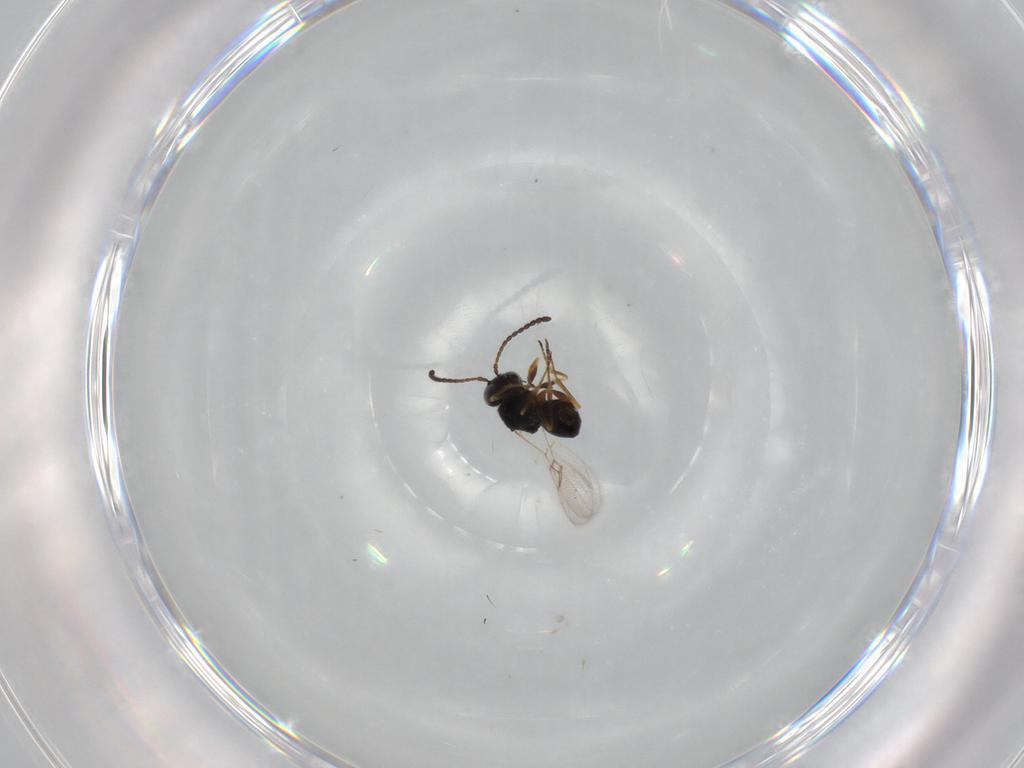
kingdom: Animalia
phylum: Arthropoda
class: Insecta
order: Hymenoptera
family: Figitidae
